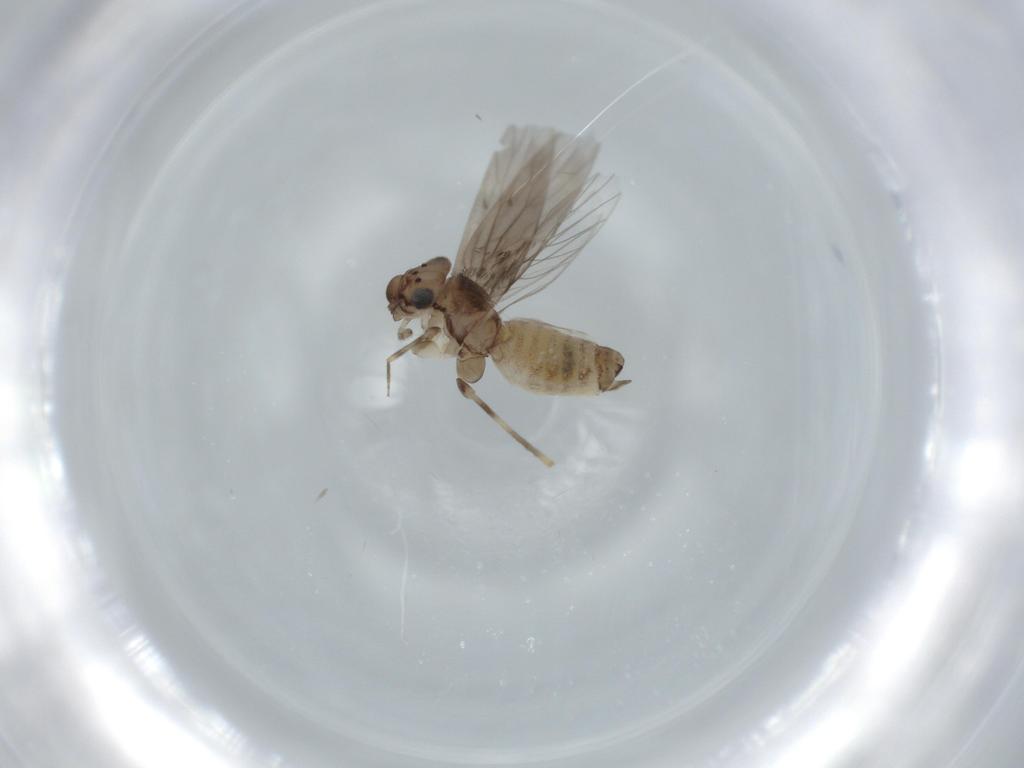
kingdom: Animalia
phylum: Arthropoda
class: Insecta
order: Psocodea
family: Lepidopsocidae
